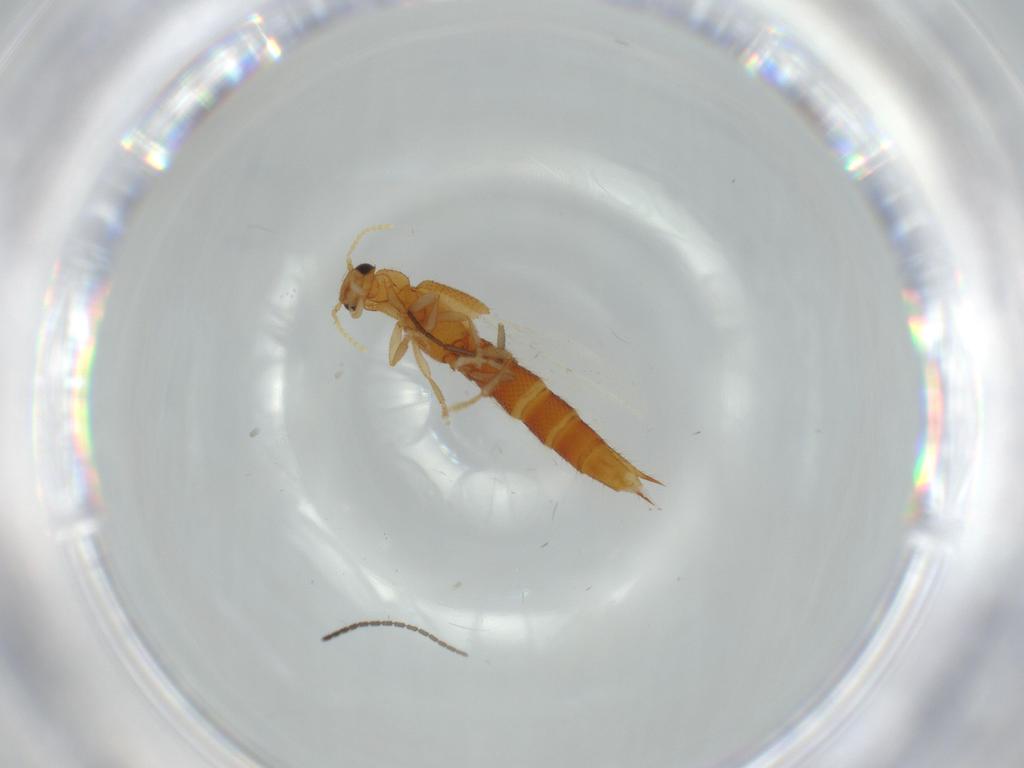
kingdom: Animalia
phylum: Arthropoda
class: Insecta
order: Coleoptera
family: Staphylinidae
